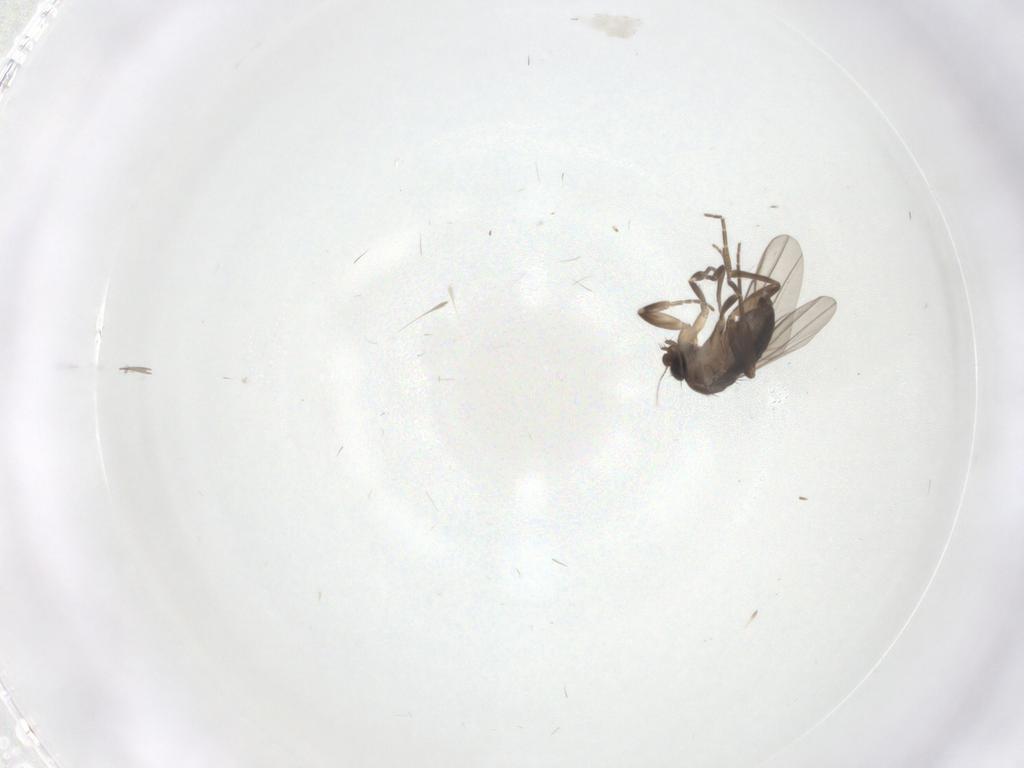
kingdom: Animalia
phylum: Arthropoda
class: Insecta
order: Diptera
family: Phoridae
